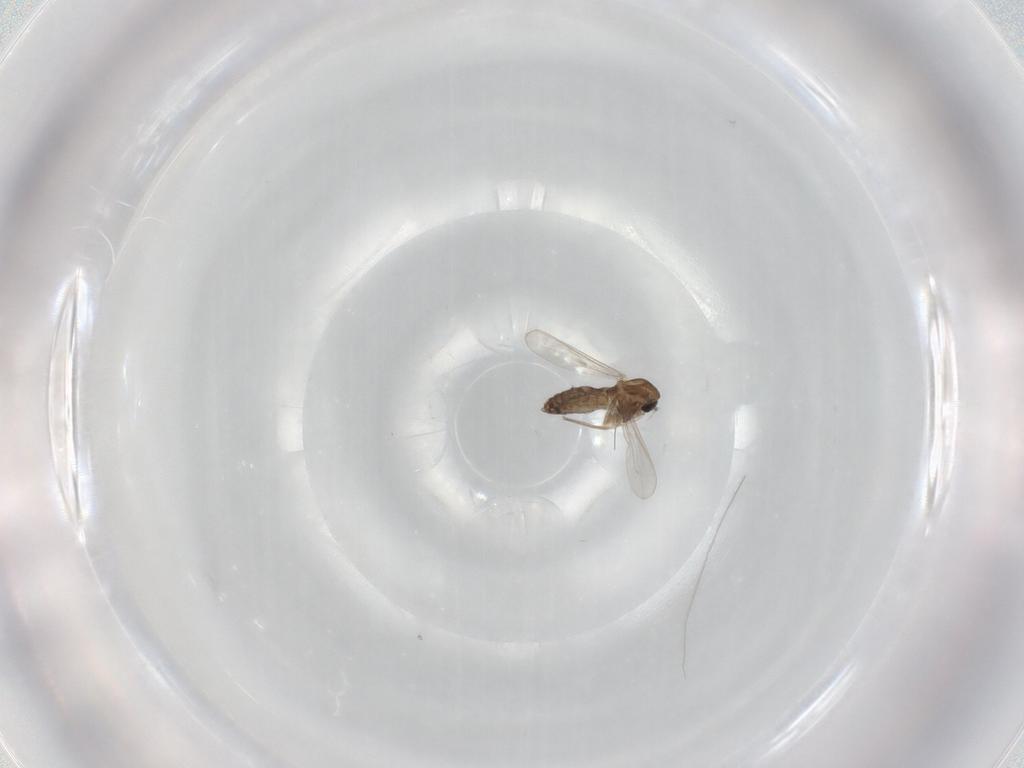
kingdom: Animalia
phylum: Arthropoda
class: Insecta
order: Diptera
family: Chironomidae
